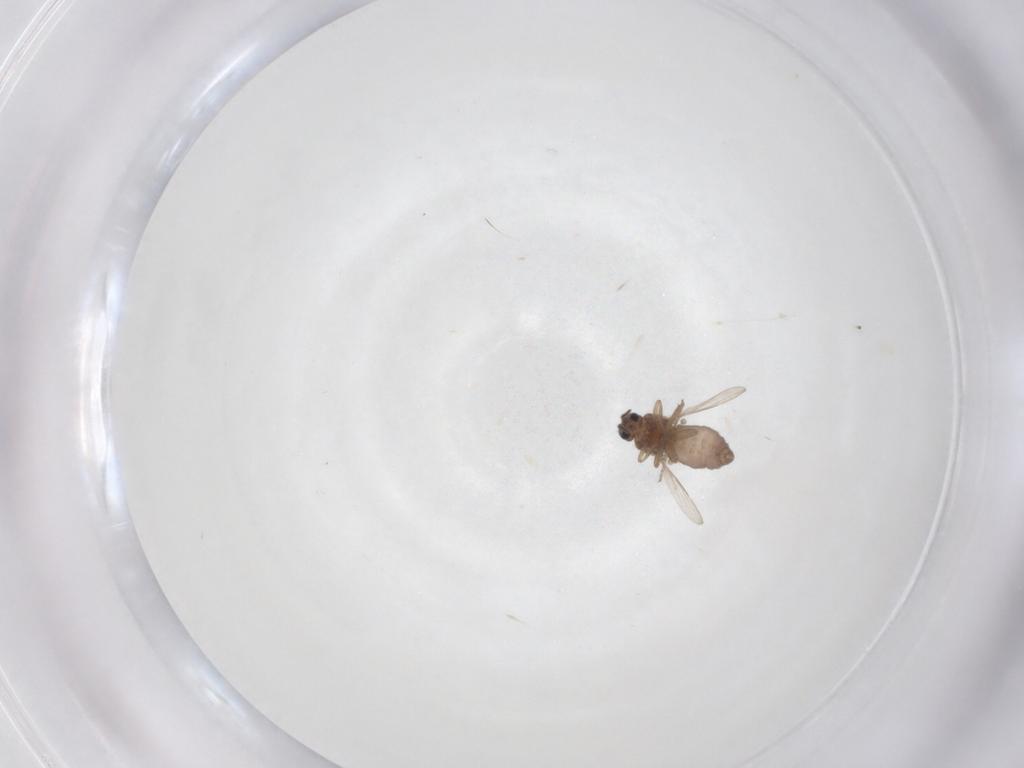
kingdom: Animalia
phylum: Arthropoda
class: Insecta
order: Diptera
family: Ceratopogonidae
